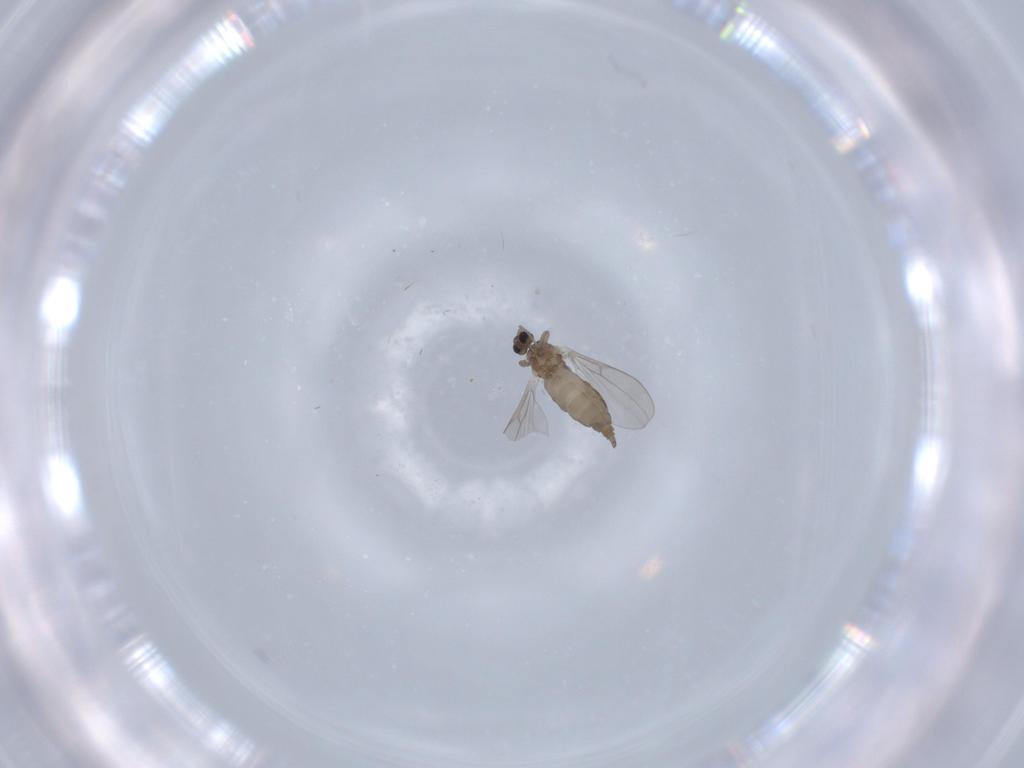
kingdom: Animalia
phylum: Arthropoda
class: Insecta
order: Diptera
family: Cecidomyiidae
